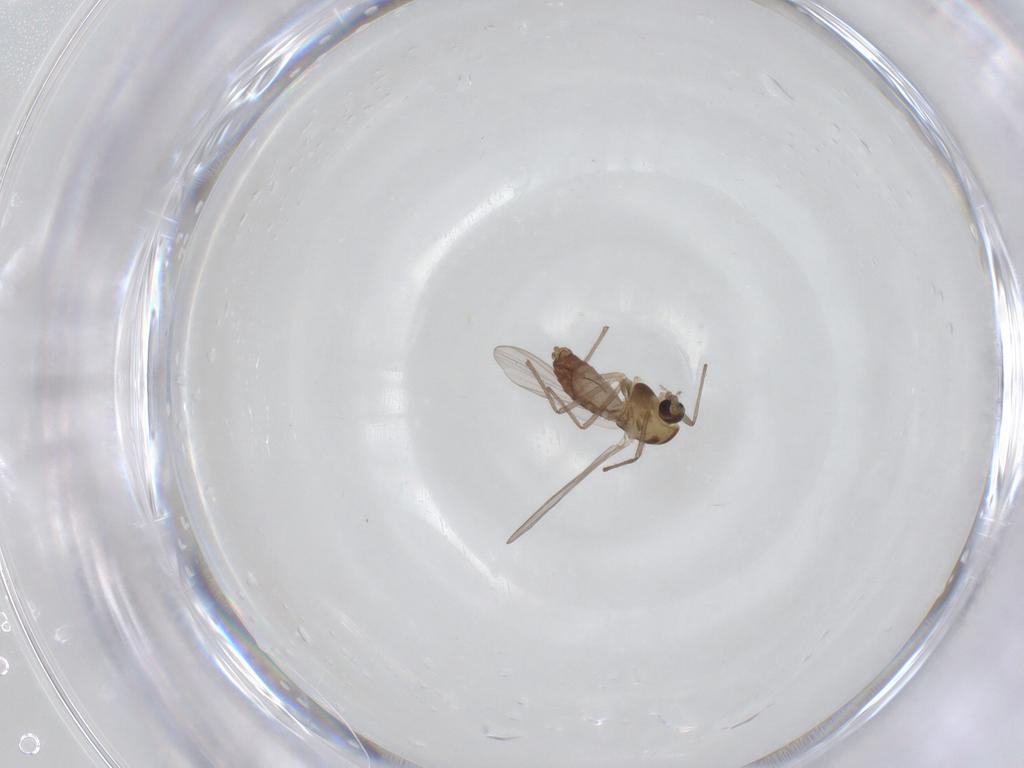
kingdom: Animalia
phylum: Arthropoda
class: Insecta
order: Diptera
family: Chironomidae
